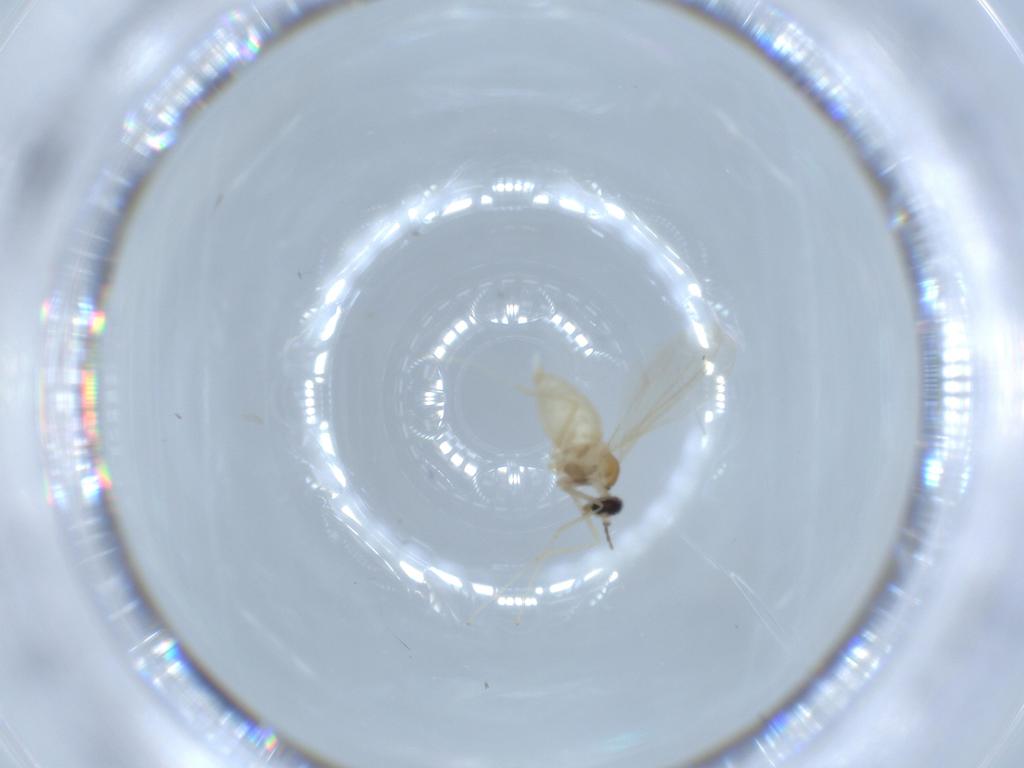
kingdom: Animalia
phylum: Arthropoda
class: Insecta
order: Diptera
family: Cecidomyiidae
